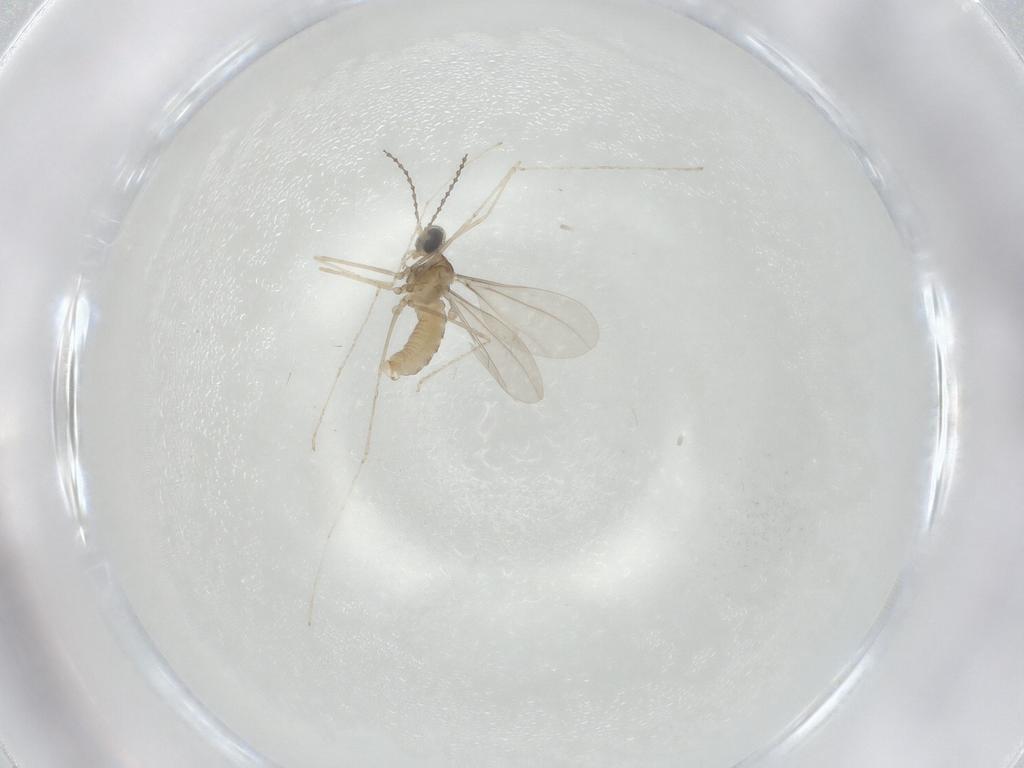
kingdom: Animalia
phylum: Arthropoda
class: Insecta
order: Diptera
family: Cecidomyiidae
